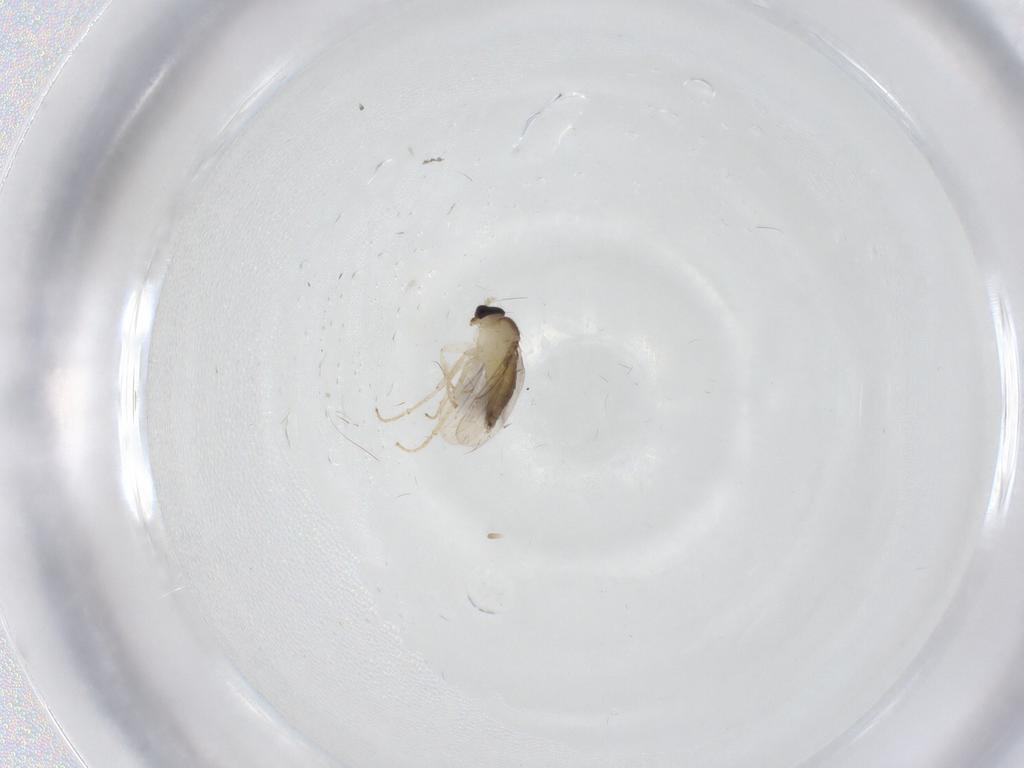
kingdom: Animalia
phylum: Arthropoda
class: Insecta
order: Diptera
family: Hybotidae
